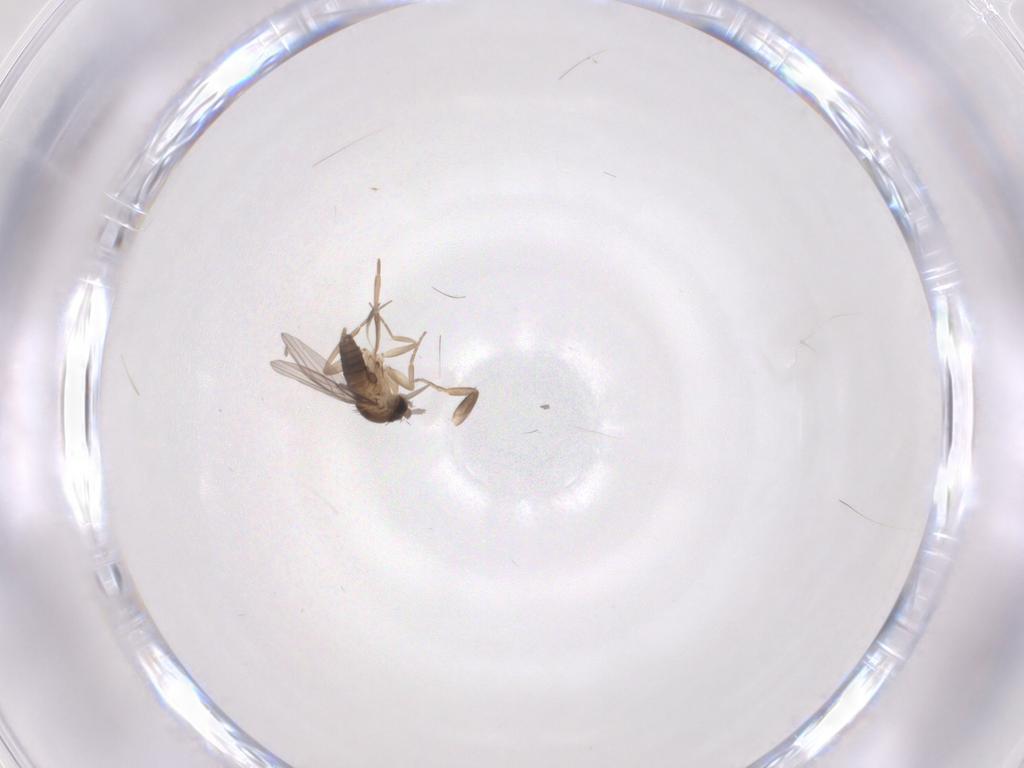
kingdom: Animalia
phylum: Arthropoda
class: Insecta
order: Diptera
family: Phoridae
